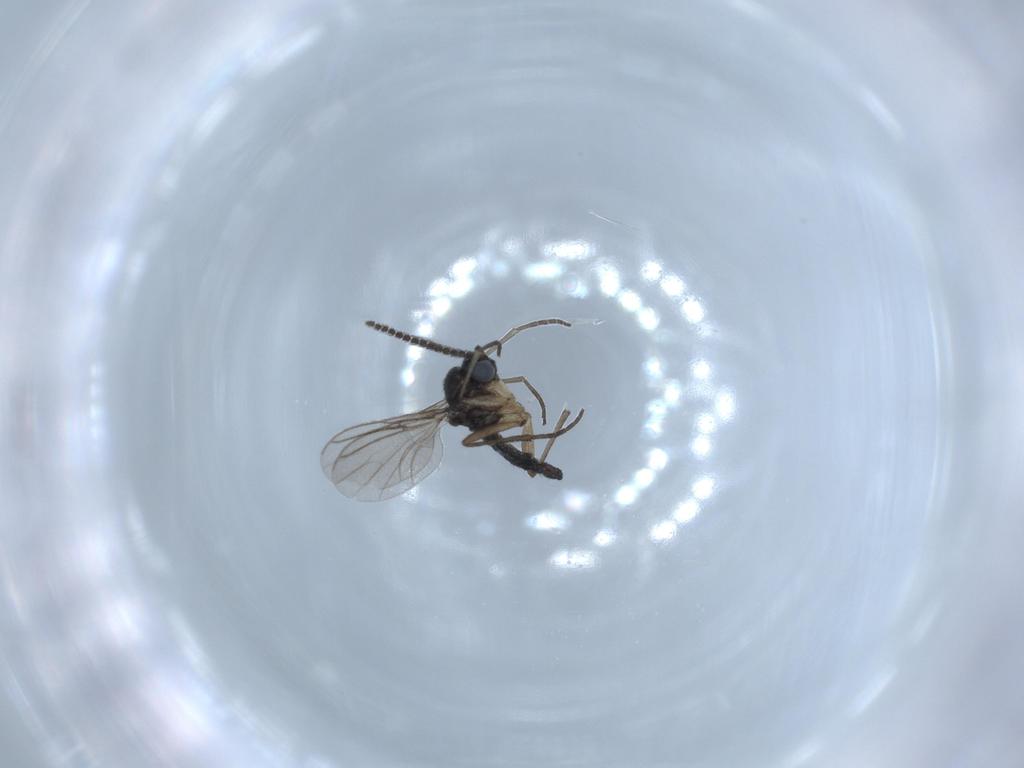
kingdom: Animalia
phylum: Arthropoda
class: Insecta
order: Diptera
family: Sciaridae
